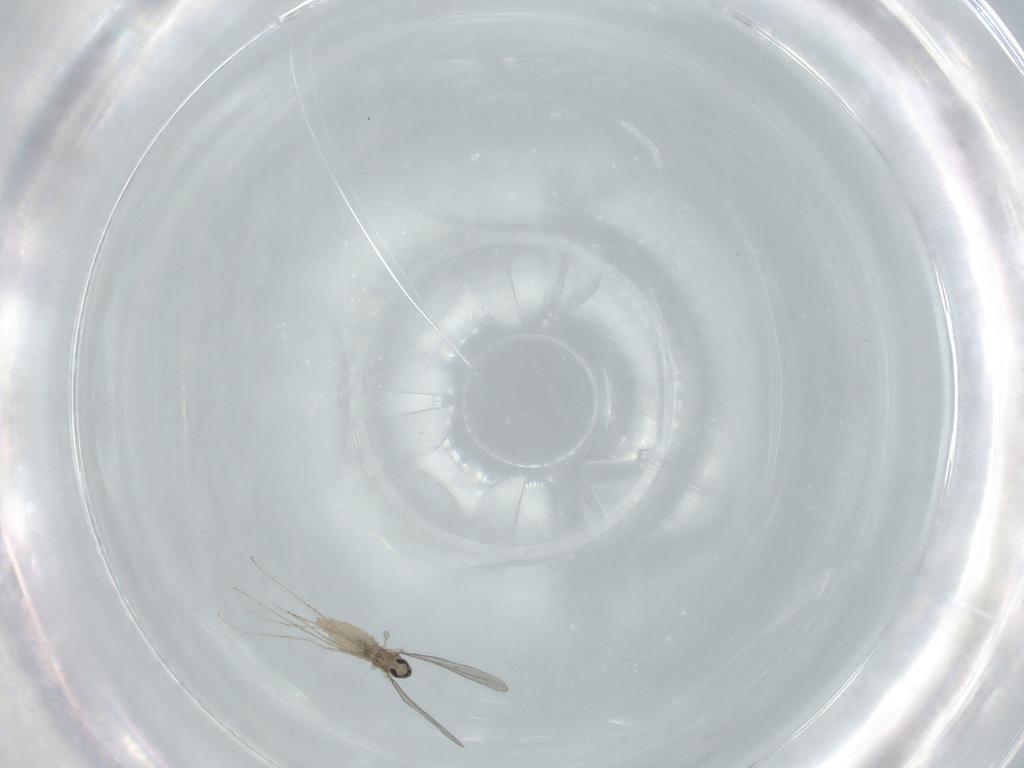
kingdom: Animalia
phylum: Arthropoda
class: Insecta
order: Diptera
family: Cecidomyiidae
